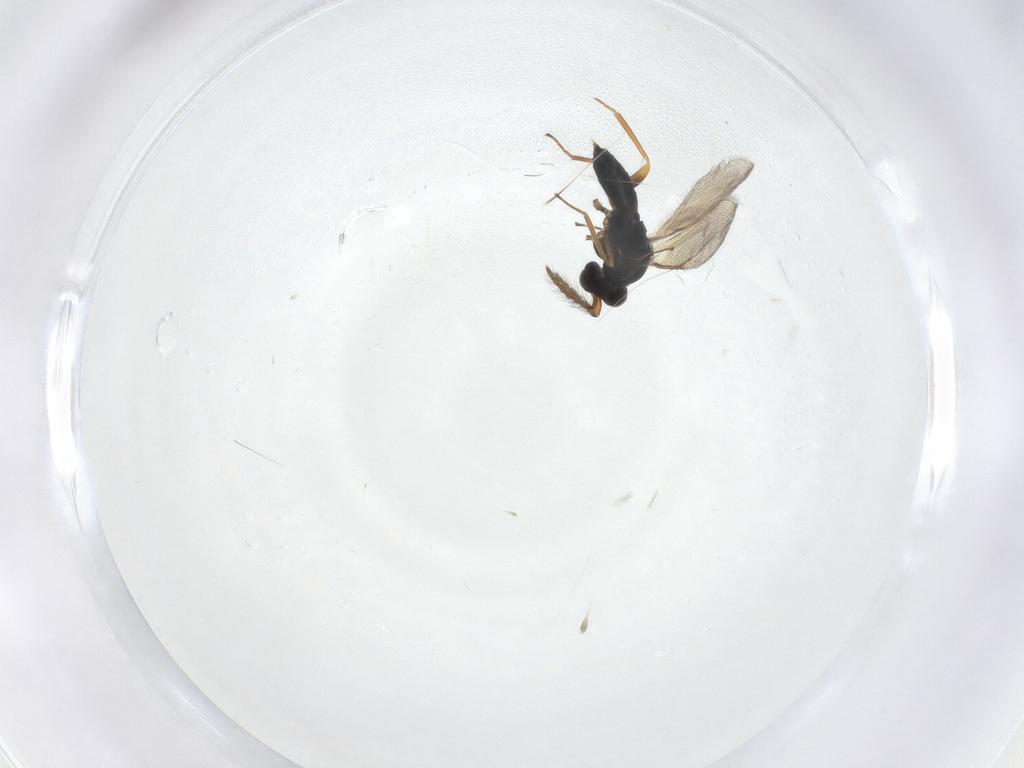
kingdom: Animalia
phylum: Arthropoda
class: Insecta
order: Hymenoptera
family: Eulophidae
